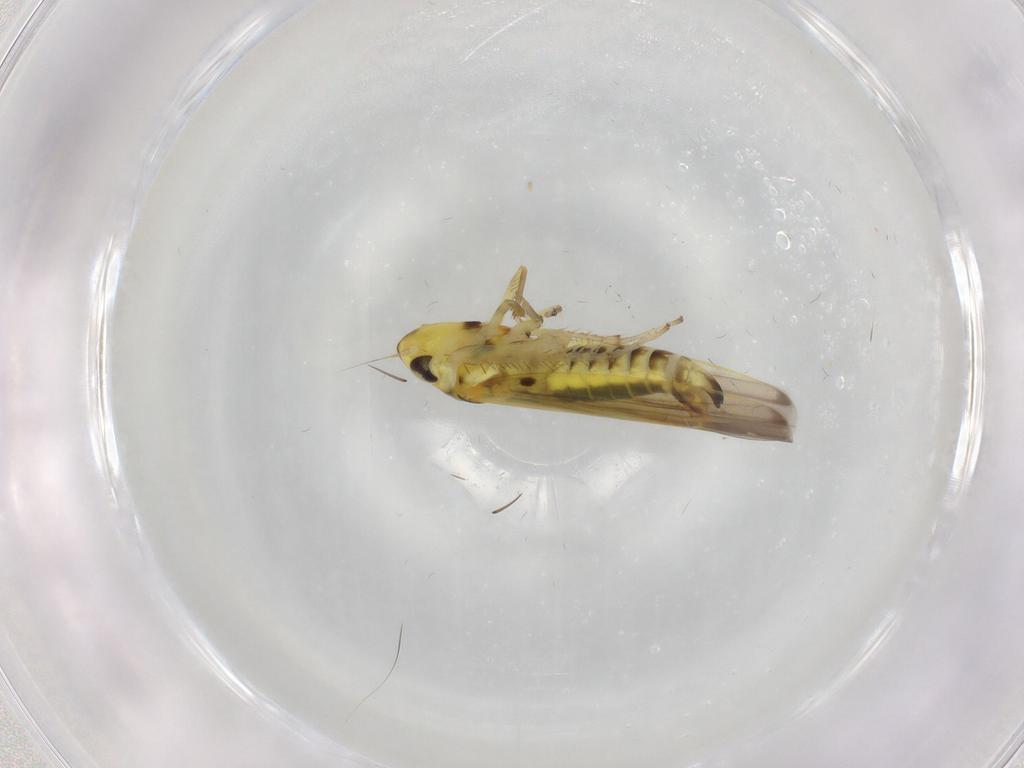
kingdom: Animalia
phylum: Arthropoda
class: Insecta
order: Hemiptera
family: Cicadellidae
